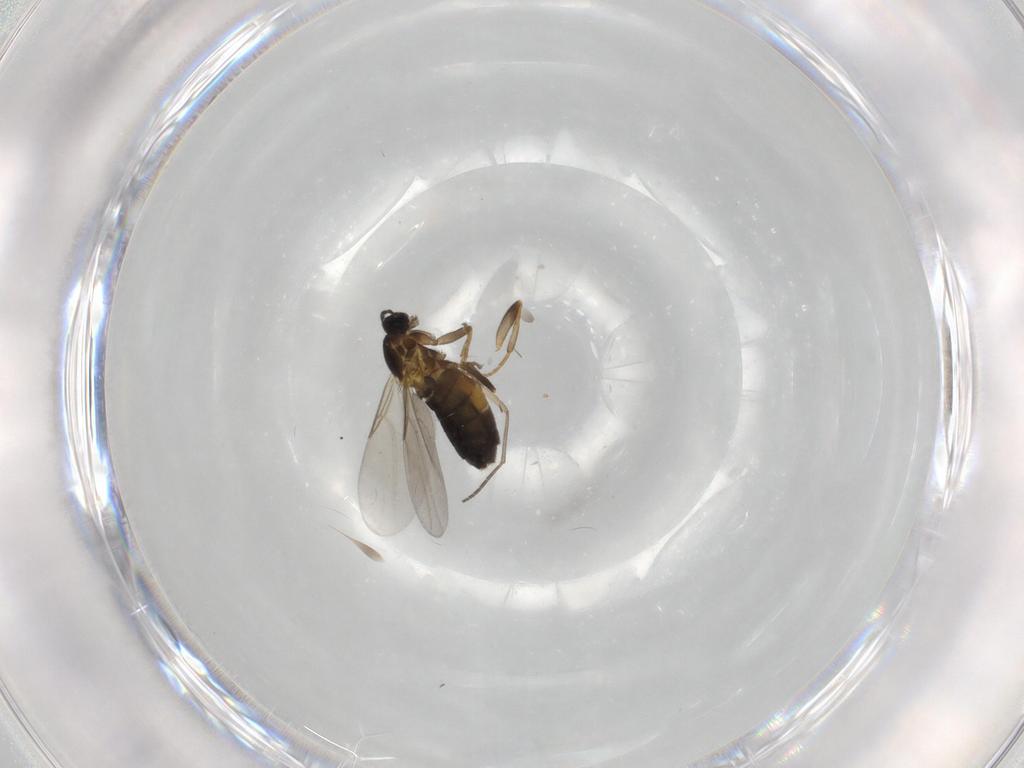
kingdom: Animalia
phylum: Arthropoda
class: Insecta
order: Diptera
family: Scatopsidae
